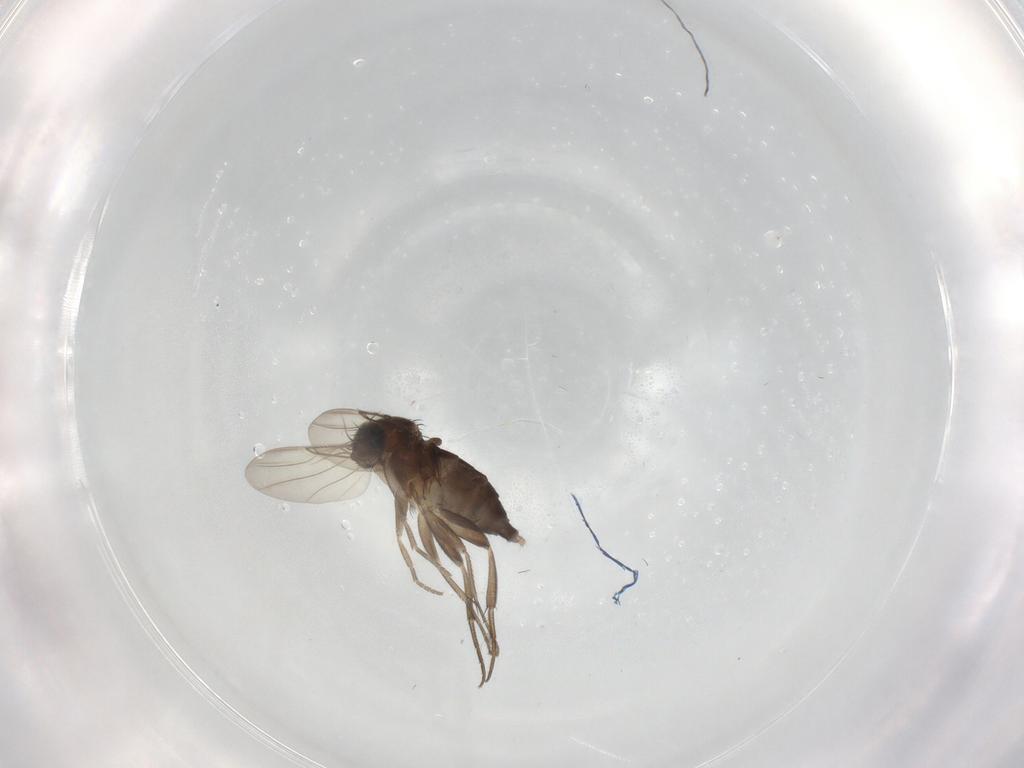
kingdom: Animalia
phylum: Arthropoda
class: Insecta
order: Diptera
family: Phoridae
